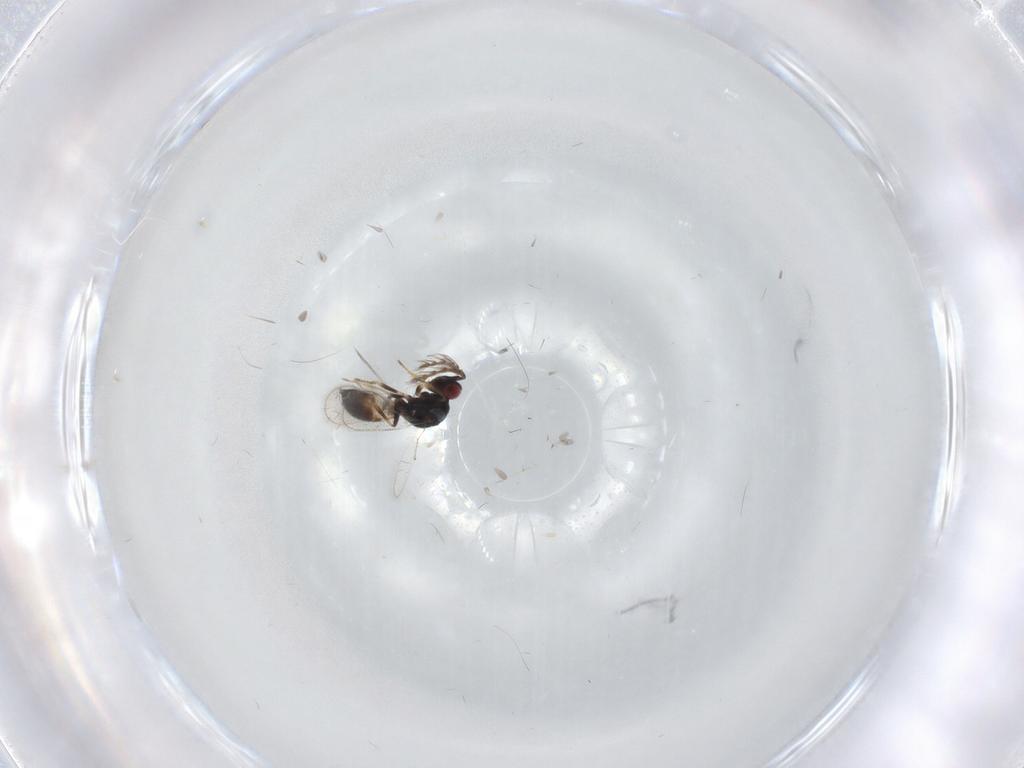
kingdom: Animalia
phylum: Arthropoda
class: Insecta
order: Hymenoptera
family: Eulophidae
